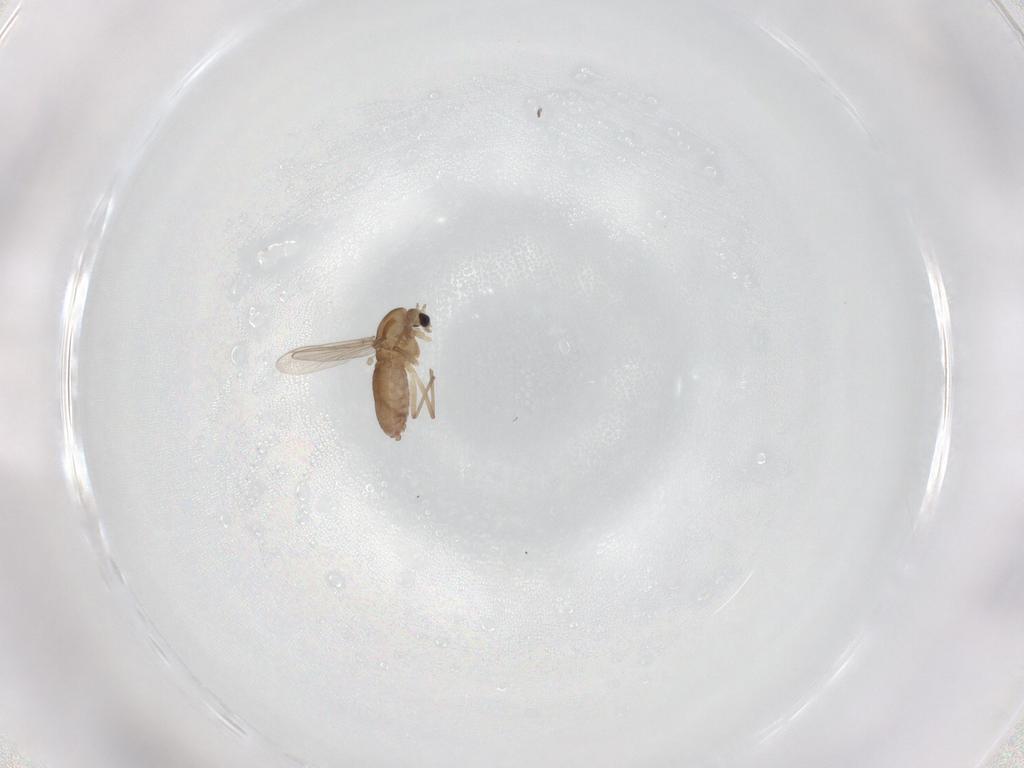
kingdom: Animalia
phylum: Arthropoda
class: Insecta
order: Diptera
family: Chironomidae
